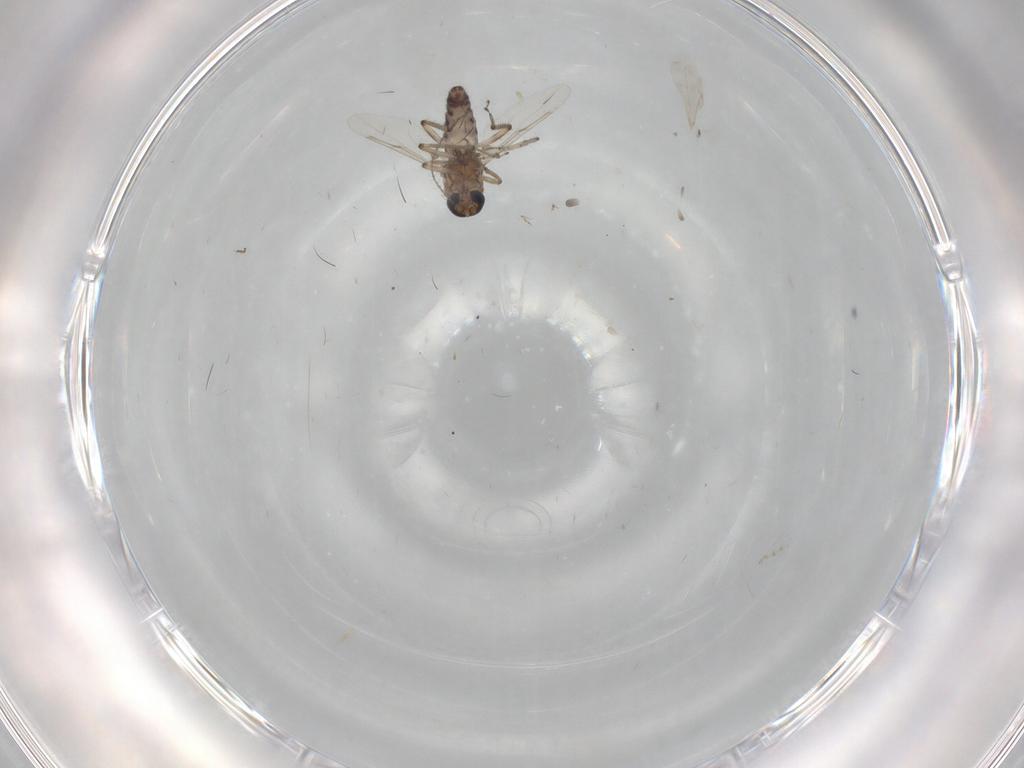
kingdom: Animalia
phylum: Arthropoda
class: Insecta
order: Diptera
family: Ceratopogonidae
